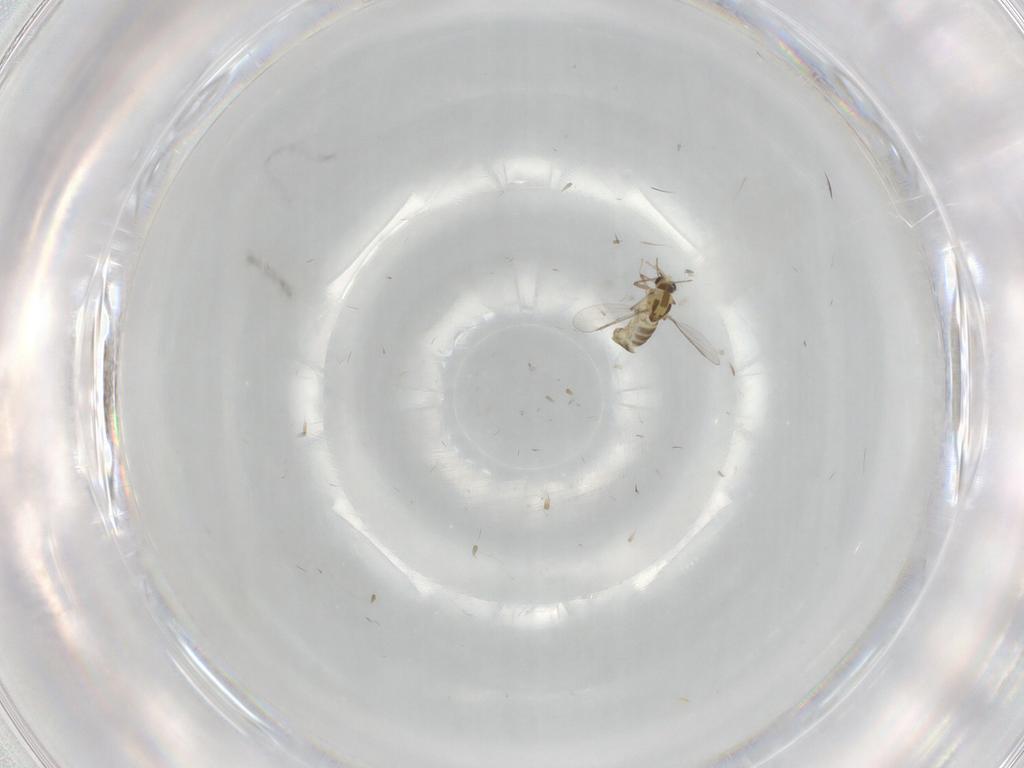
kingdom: Animalia
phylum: Arthropoda
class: Insecta
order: Diptera
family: Chironomidae
